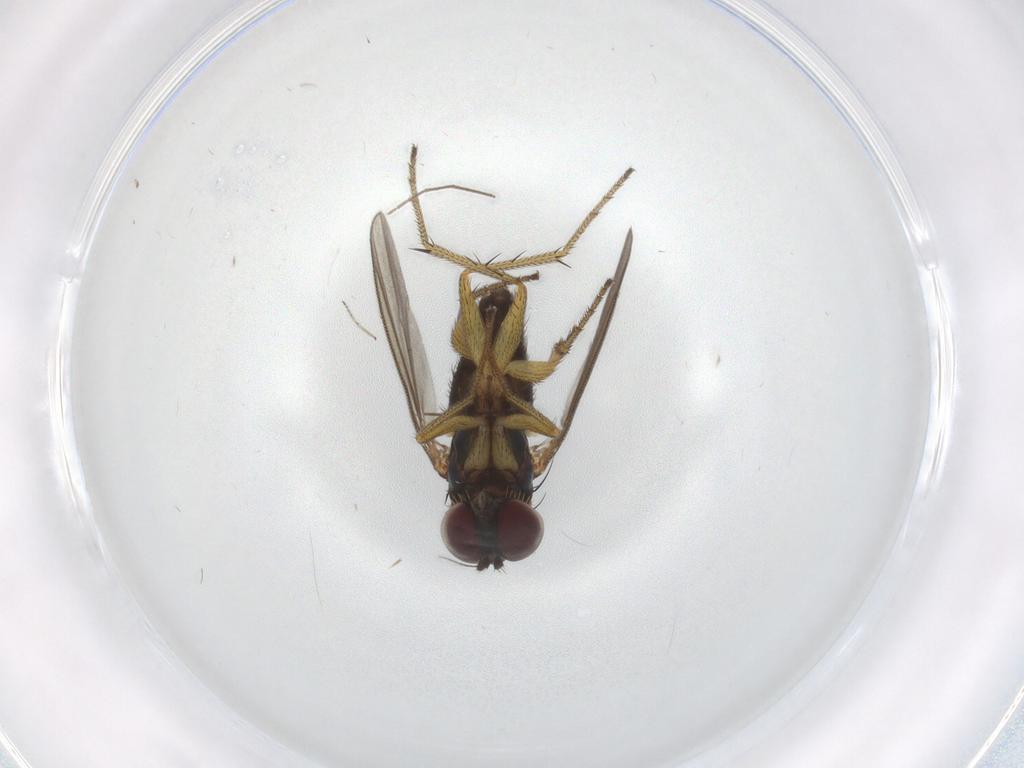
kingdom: Animalia
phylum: Arthropoda
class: Insecta
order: Diptera
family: Chironomidae
